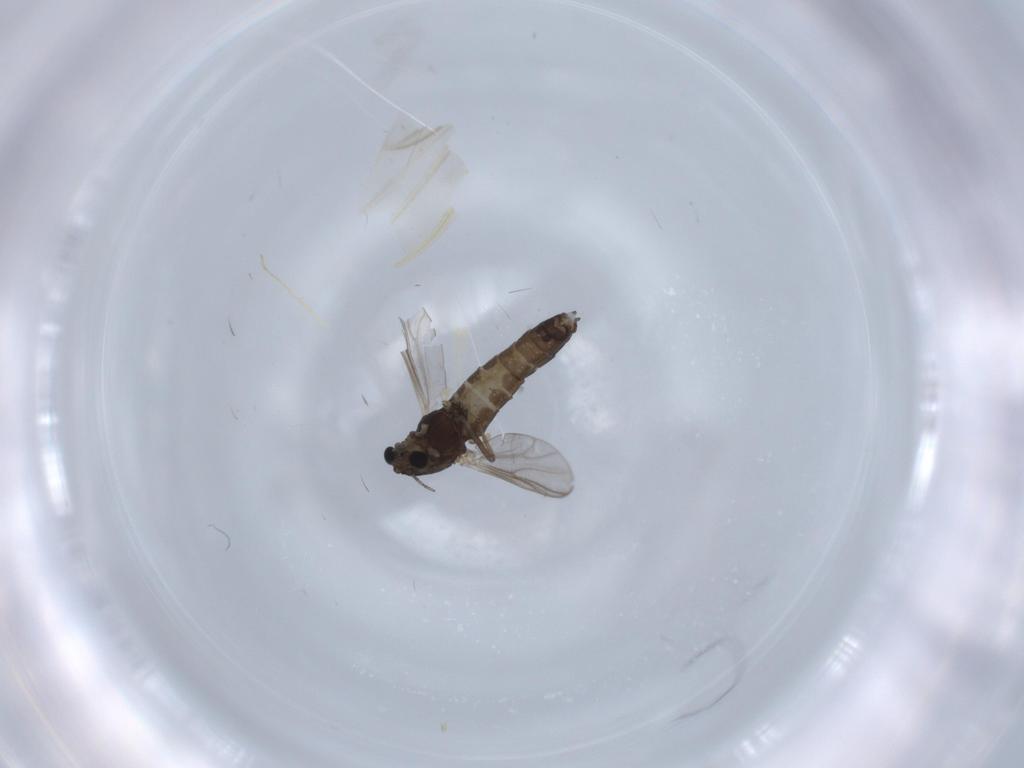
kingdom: Animalia
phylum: Arthropoda
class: Insecta
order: Diptera
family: Chironomidae
